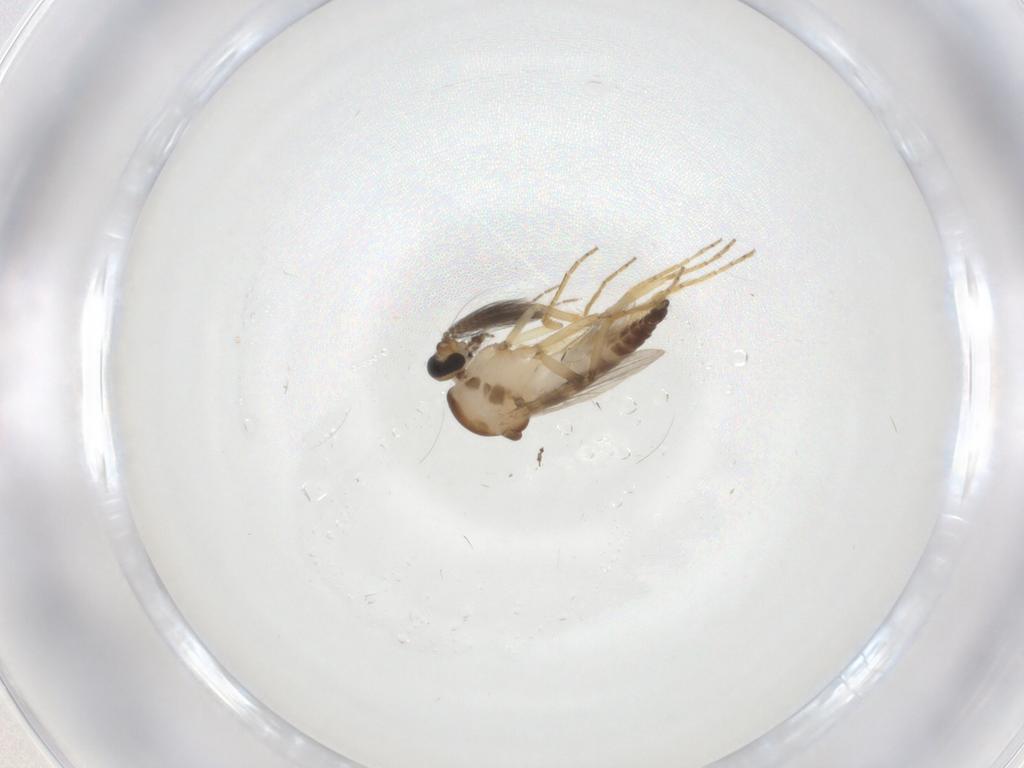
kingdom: Animalia
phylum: Arthropoda
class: Insecta
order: Diptera
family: Ceratopogonidae
